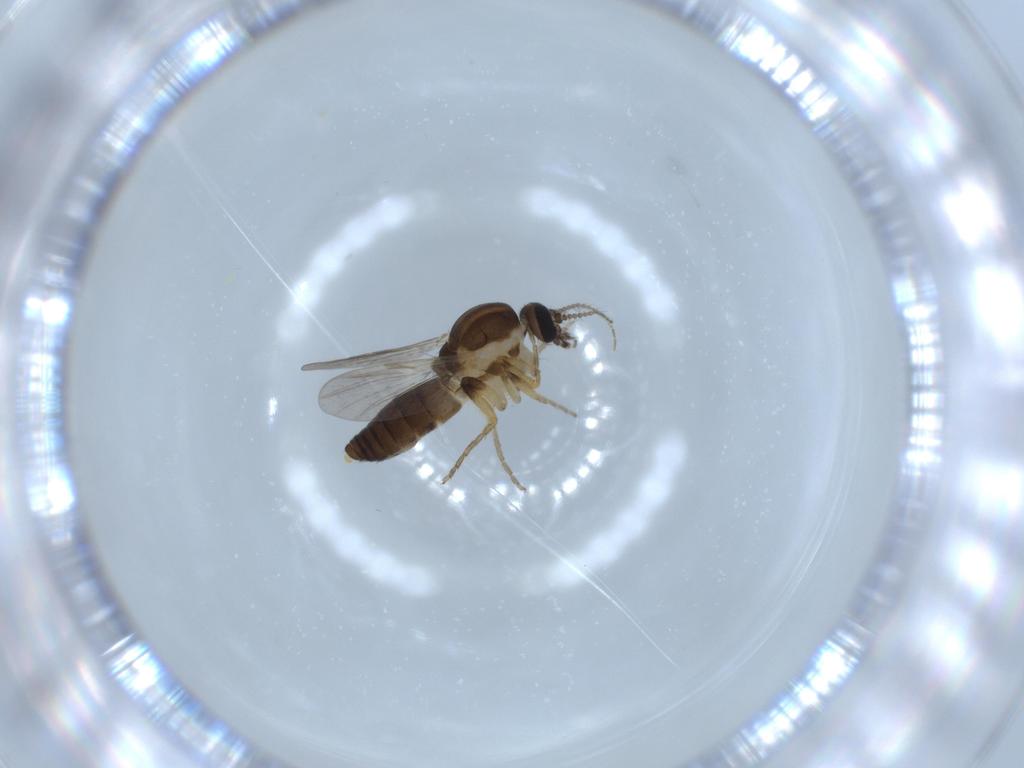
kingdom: Animalia
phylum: Arthropoda
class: Insecta
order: Diptera
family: Ceratopogonidae
